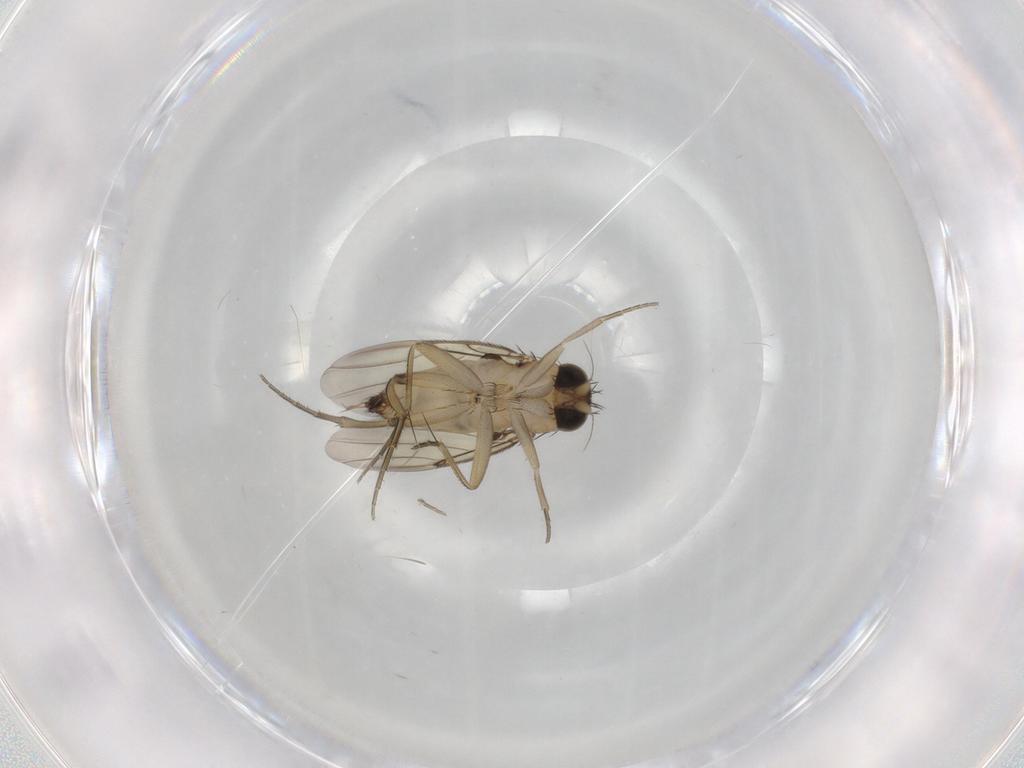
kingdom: Animalia
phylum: Arthropoda
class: Insecta
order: Diptera
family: Phoridae
